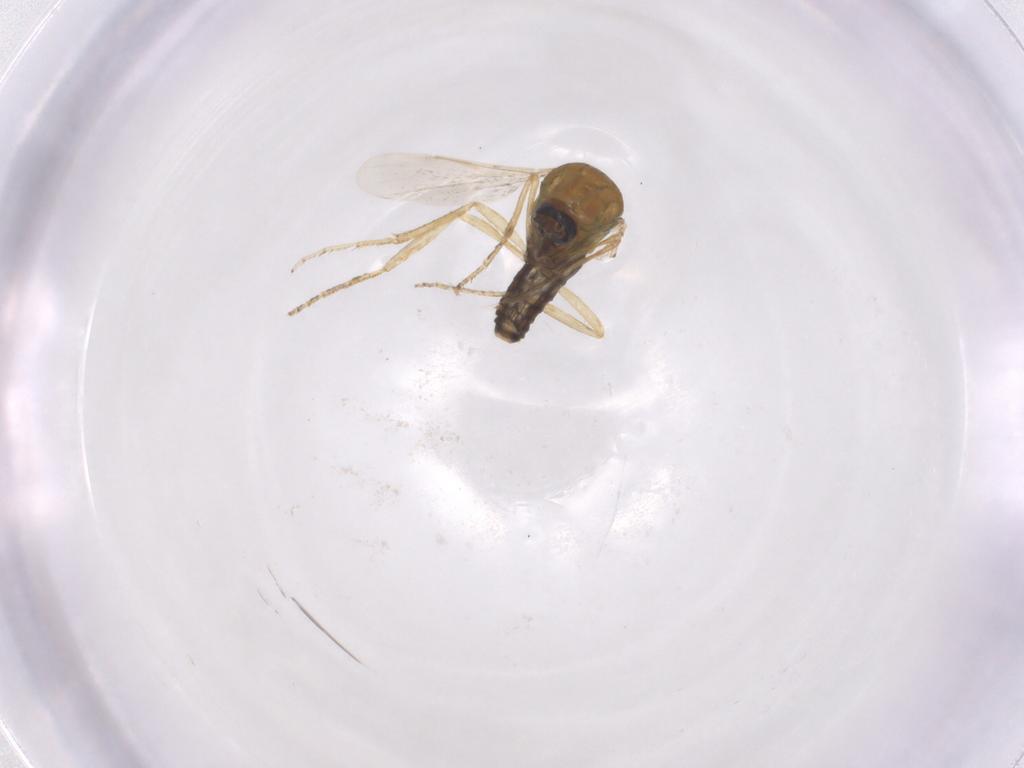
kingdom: Animalia
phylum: Arthropoda
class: Insecta
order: Diptera
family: Ceratopogonidae
